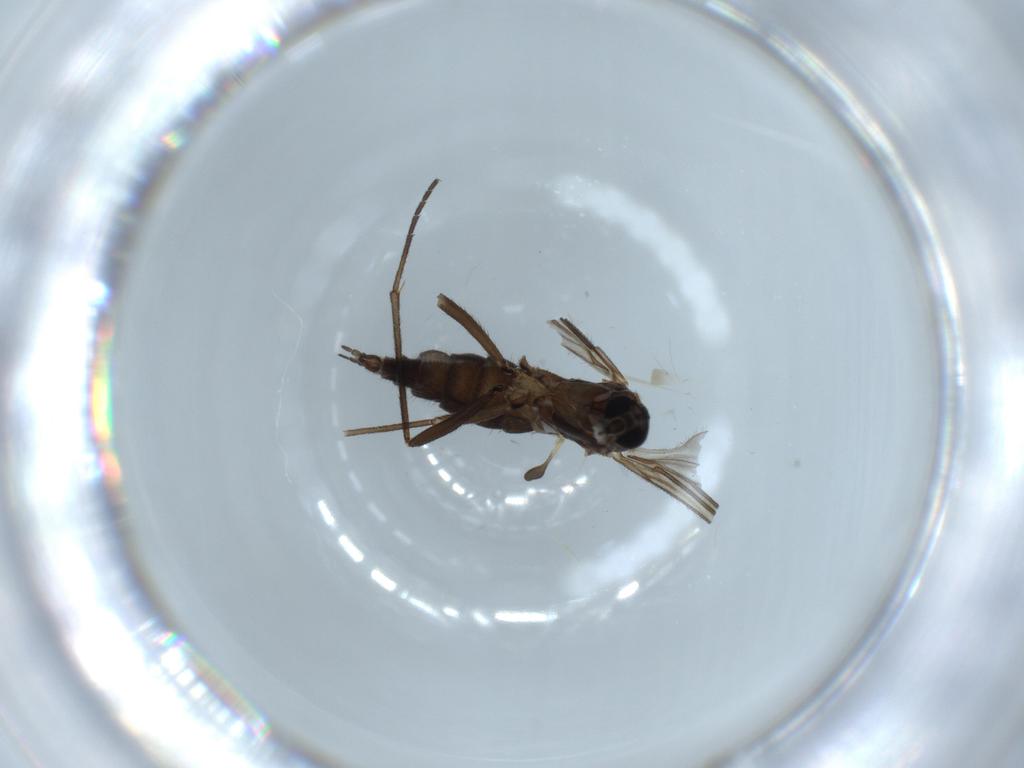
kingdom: Animalia
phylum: Arthropoda
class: Insecta
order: Diptera
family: Sciaridae
